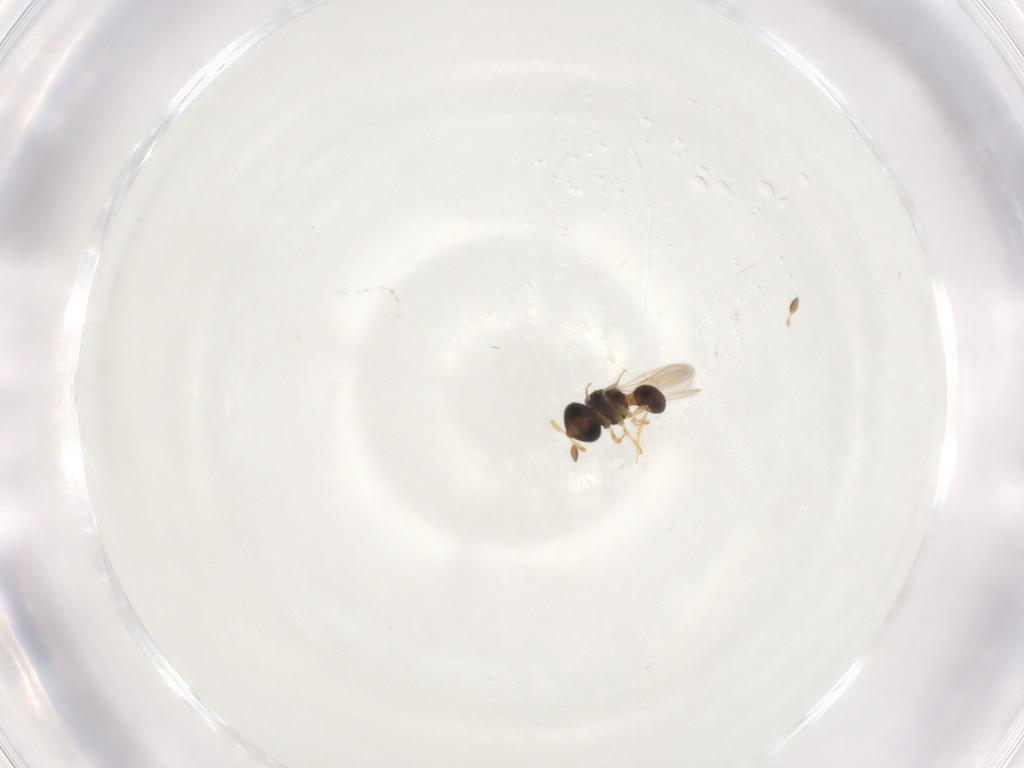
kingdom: Animalia
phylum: Arthropoda
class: Insecta
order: Hymenoptera
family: Scelionidae
